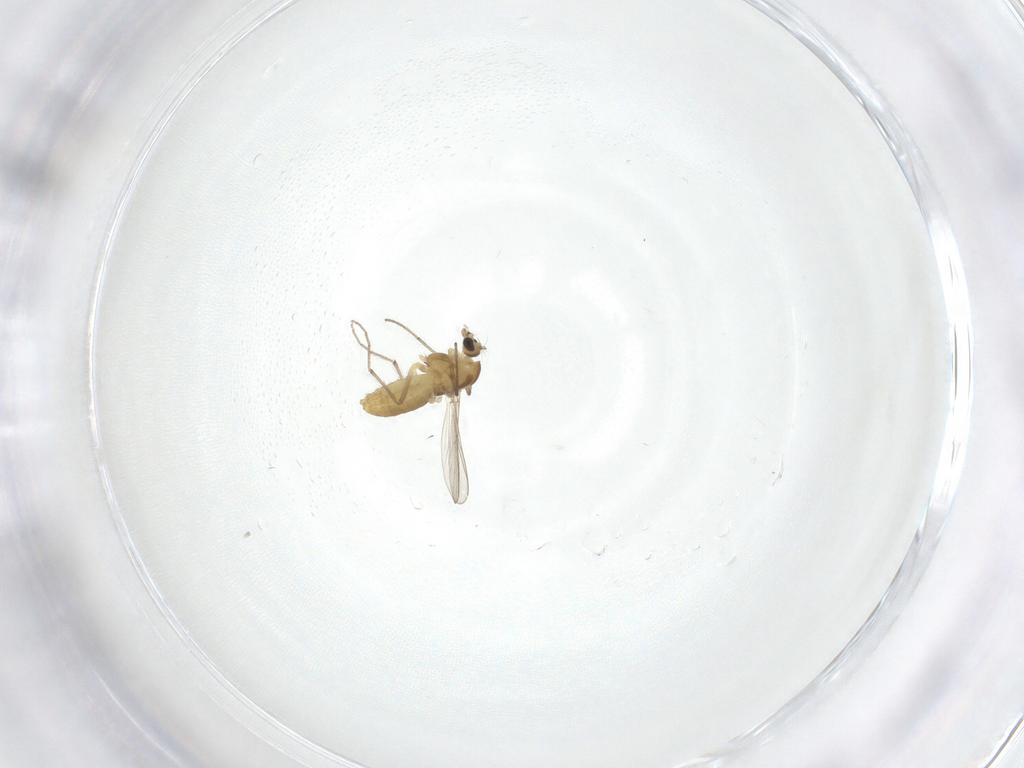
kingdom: Animalia
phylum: Arthropoda
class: Insecta
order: Diptera
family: Chironomidae
